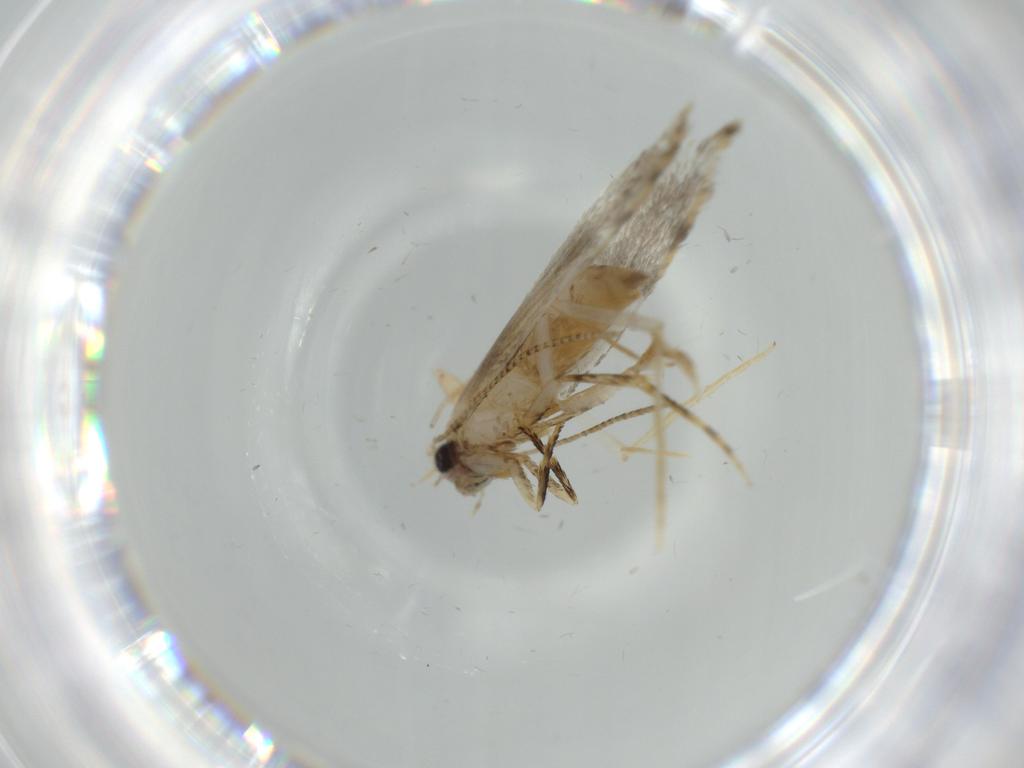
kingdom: Animalia
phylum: Arthropoda
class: Insecta
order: Lepidoptera
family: Tineidae
